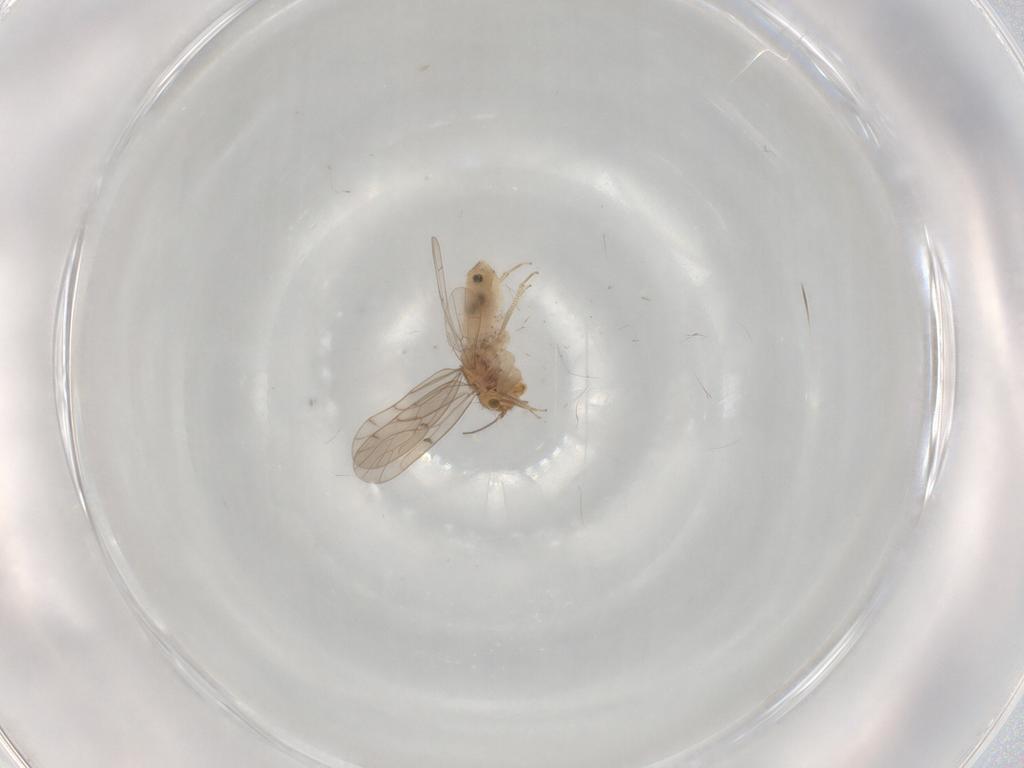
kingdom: Animalia
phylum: Arthropoda
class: Insecta
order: Psocodea
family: Ectopsocidae
